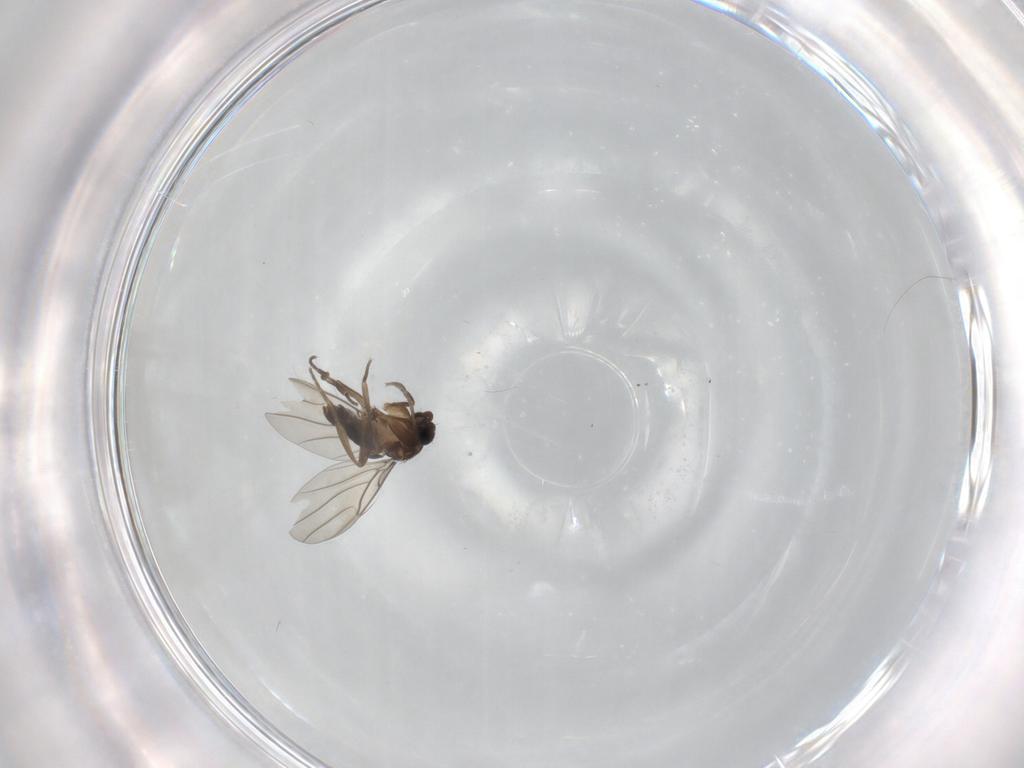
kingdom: Animalia
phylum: Arthropoda
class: Insecta
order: Diptera
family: Phoridae
